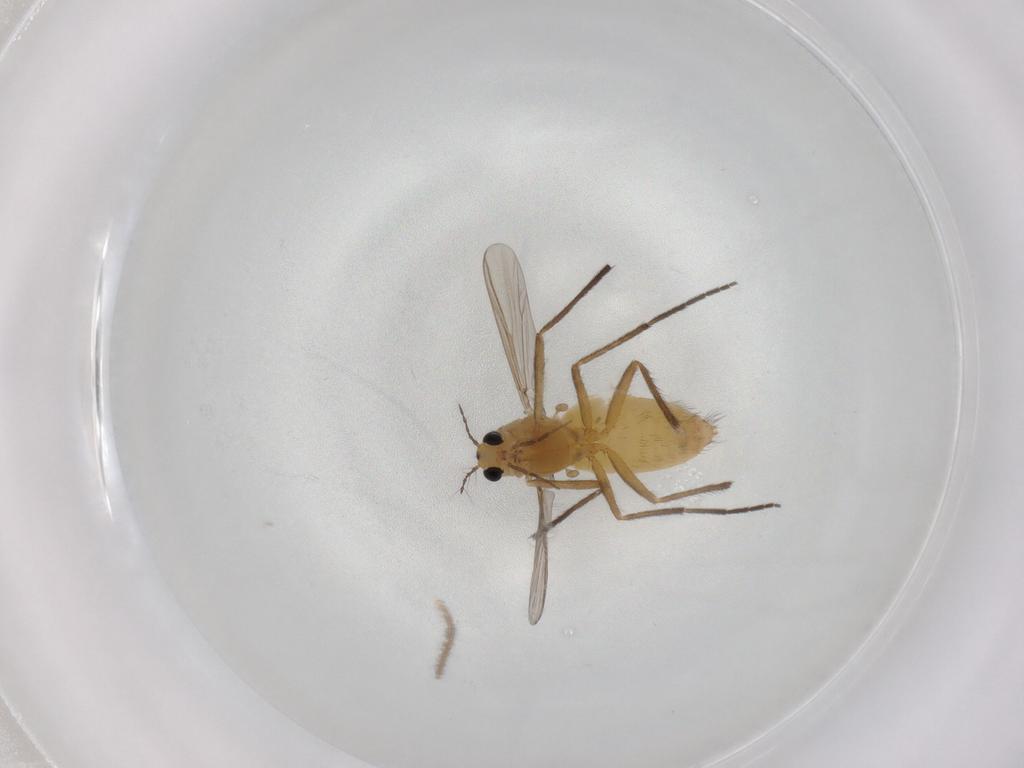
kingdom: Animalia
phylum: Arthropoda
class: Insecta
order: Diptera
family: Chironomidae
